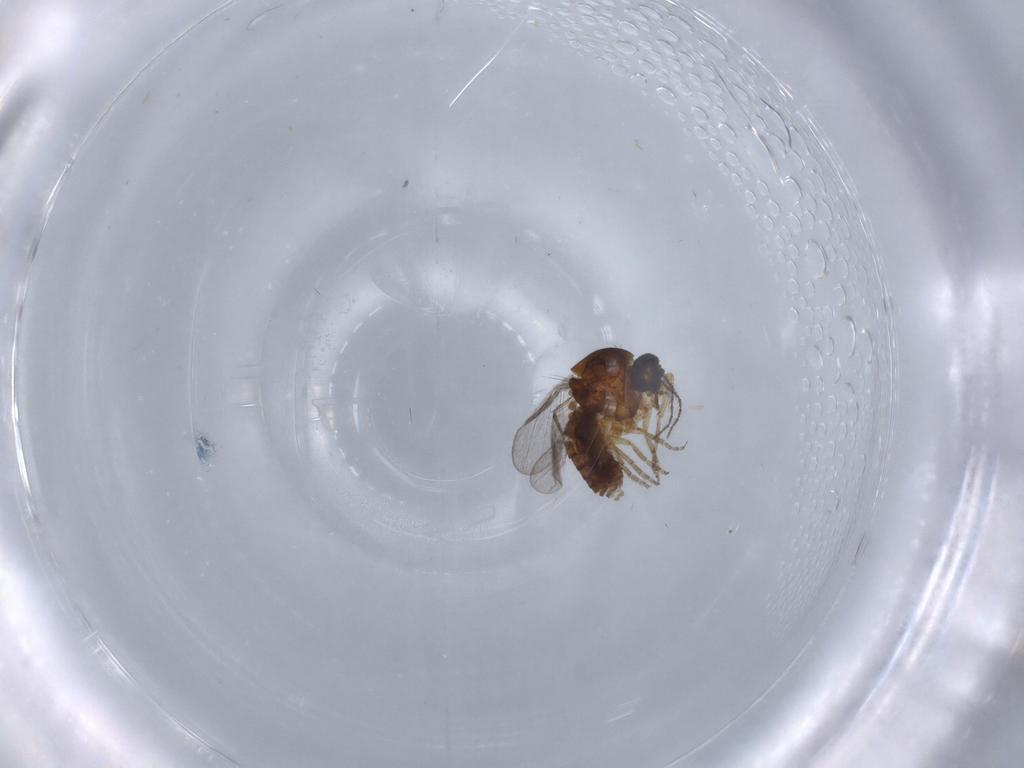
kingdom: Animalia
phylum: Arthropoda
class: Insecta
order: Diptera
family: Ceratopogonidae
